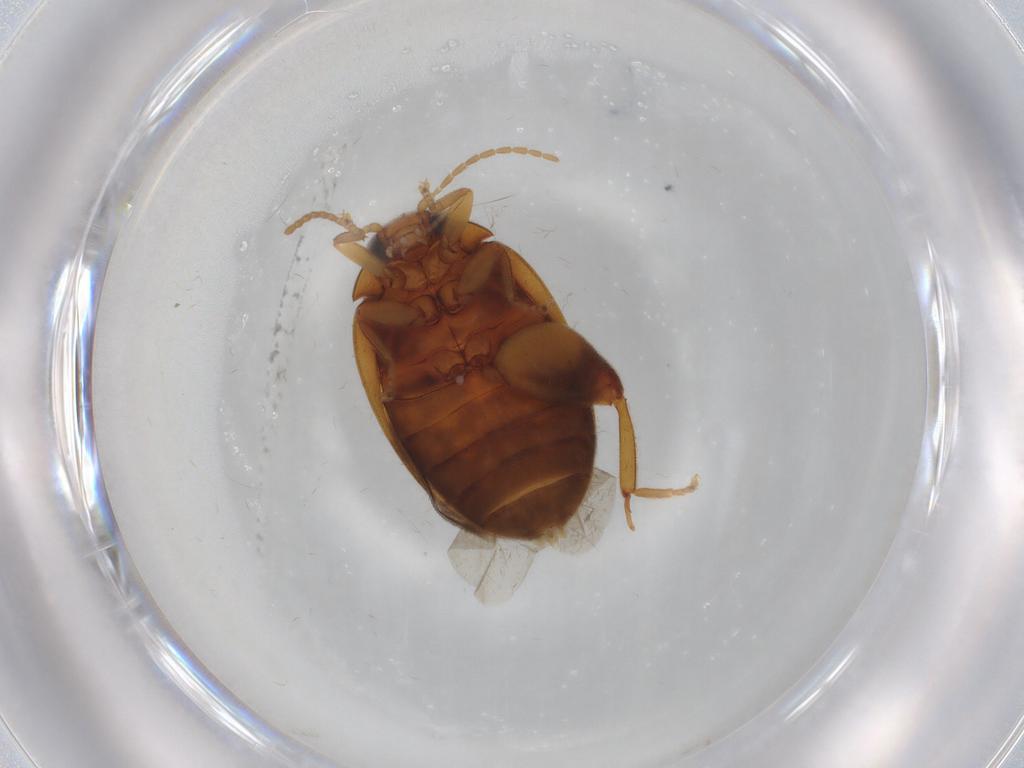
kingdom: Animalia
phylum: Arthropoda
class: Insecta
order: Coleoptera
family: Scirtidae
